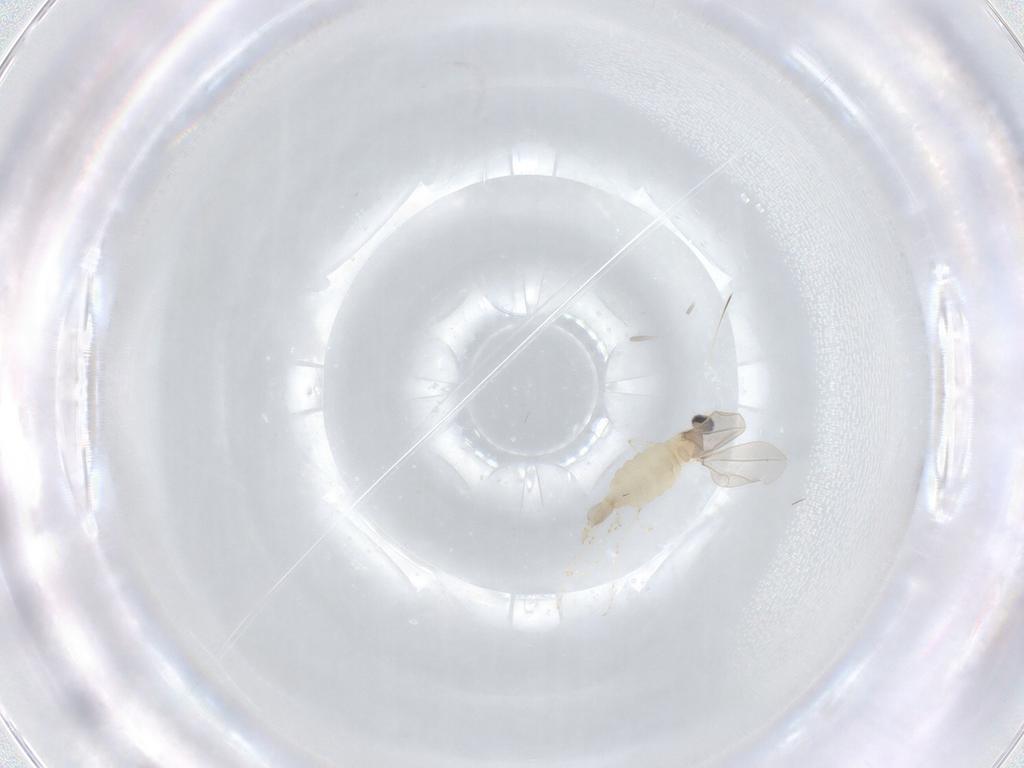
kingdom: Animalia
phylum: Arthropoda
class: Insecta
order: Diptera
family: Cecidomyiidae
